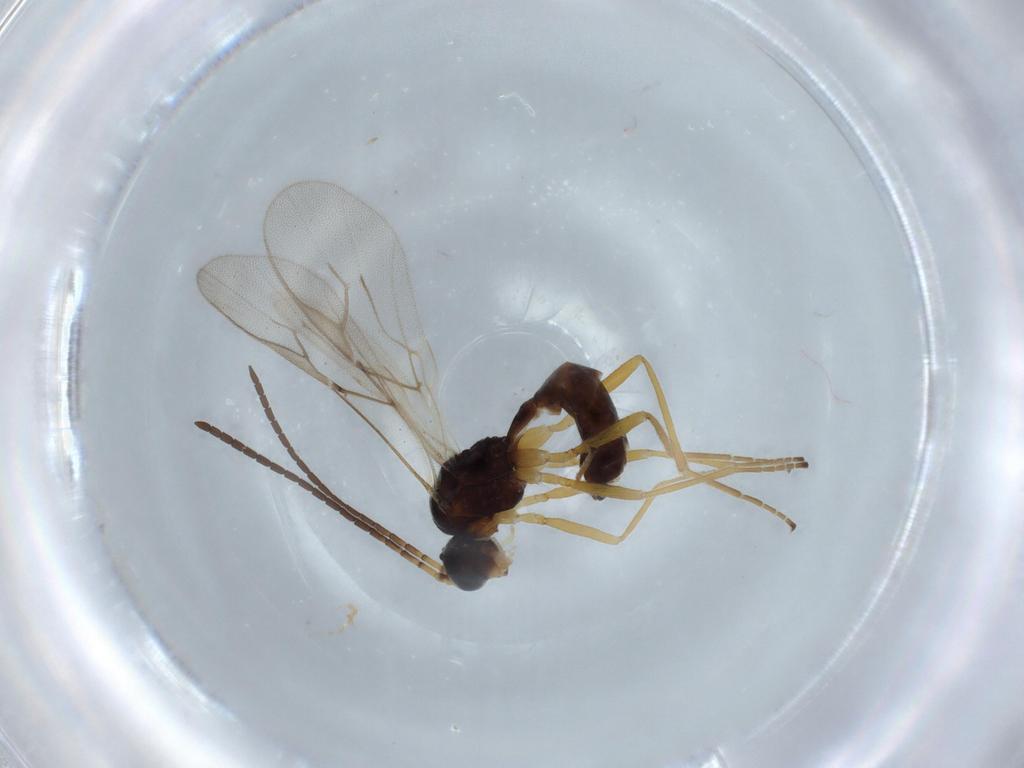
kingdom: Animalia
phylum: Arthropoda
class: Insecta
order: Hymenoptera
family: Braconidae
